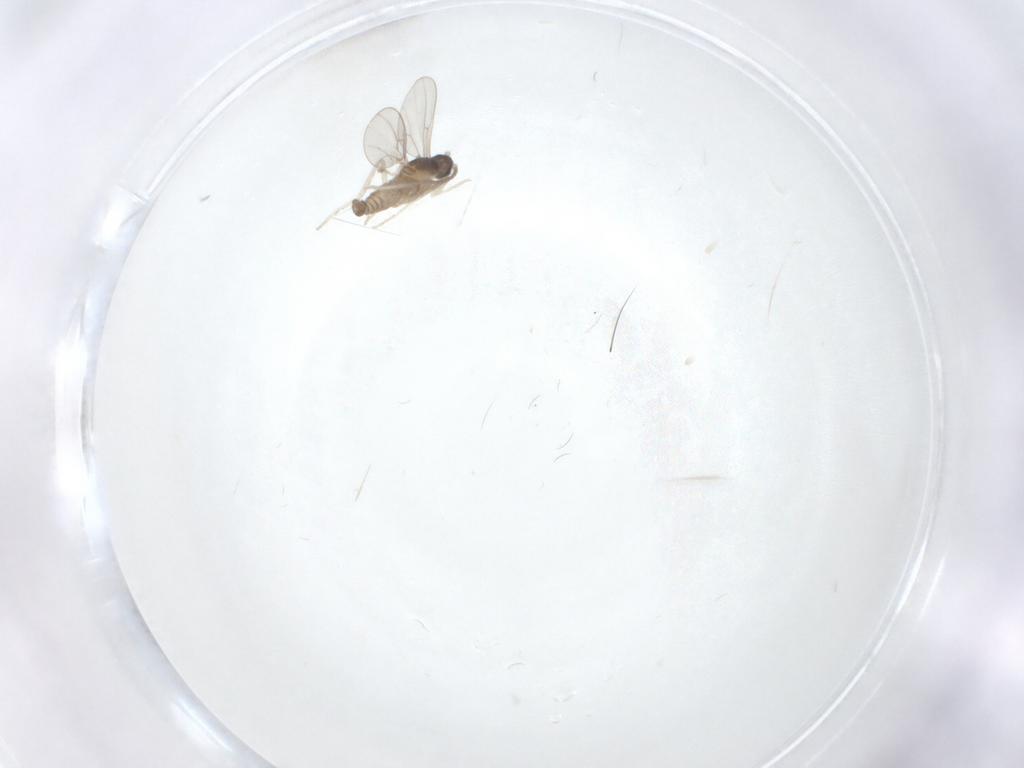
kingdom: Animalia
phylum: Arthropoda
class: Insecta
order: Diptera
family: Cecidomyiidae
